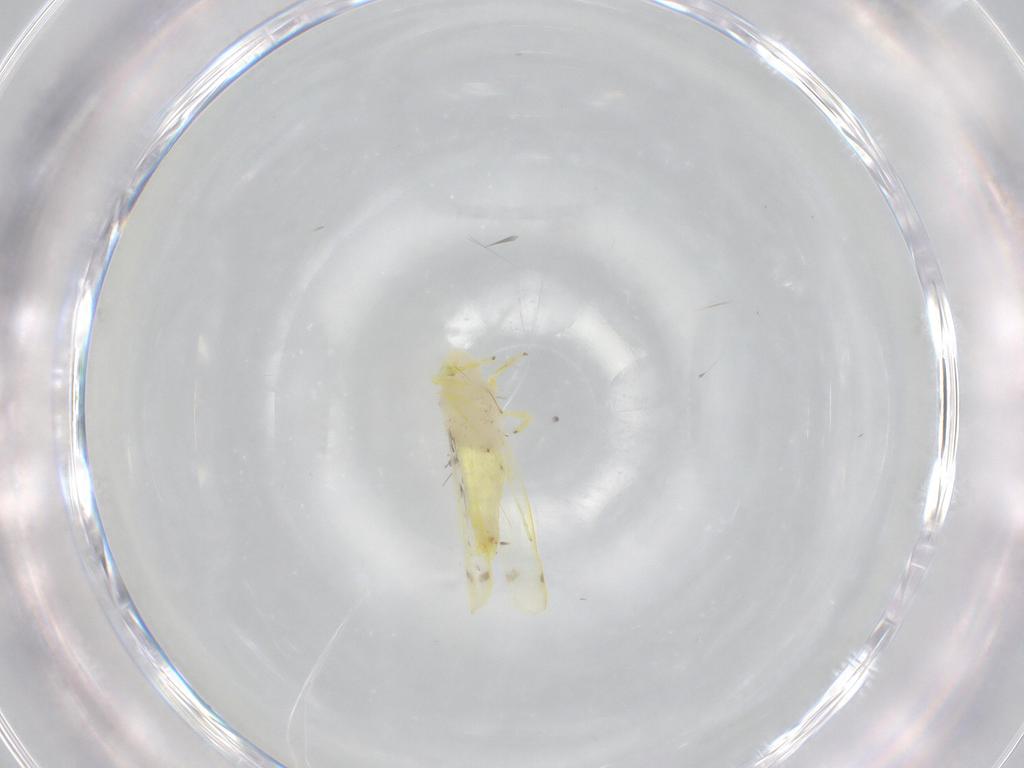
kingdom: Animalia
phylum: Arthropoda
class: Insecta
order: Hemiptera
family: Cicadellidae
